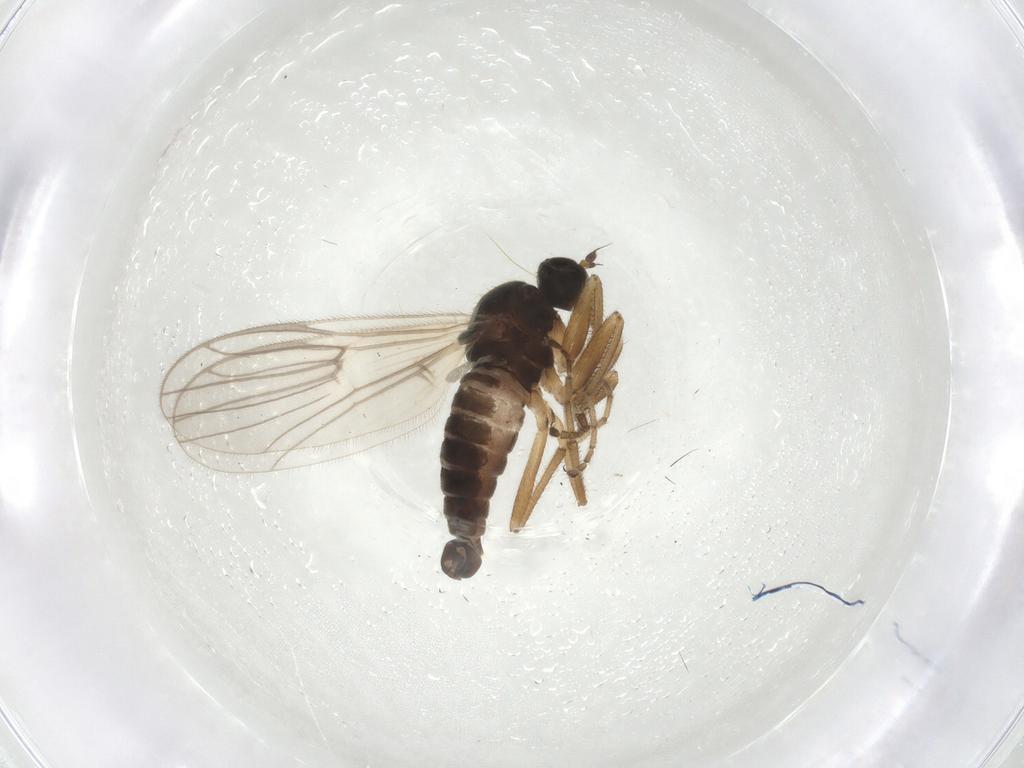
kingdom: Animalia
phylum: Arthropoda
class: Insecta
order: Diptera
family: Hybotidae
